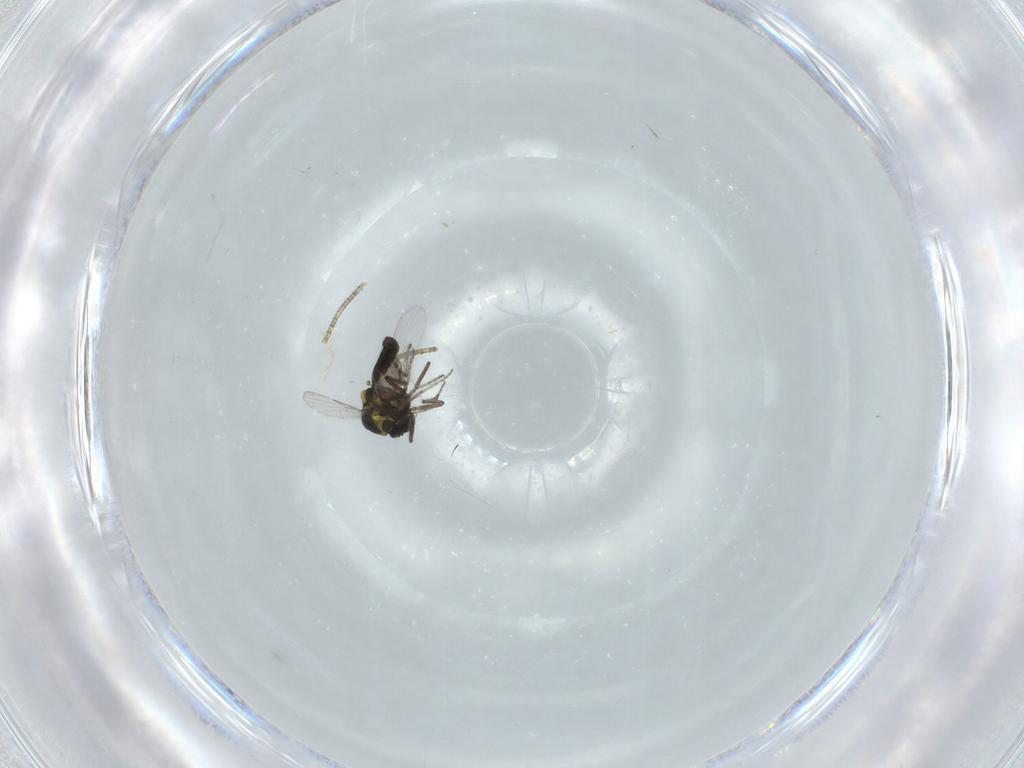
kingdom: Animalia
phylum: Arthropoda
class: Insecta
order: Diptera
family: Ceratopogonidae
